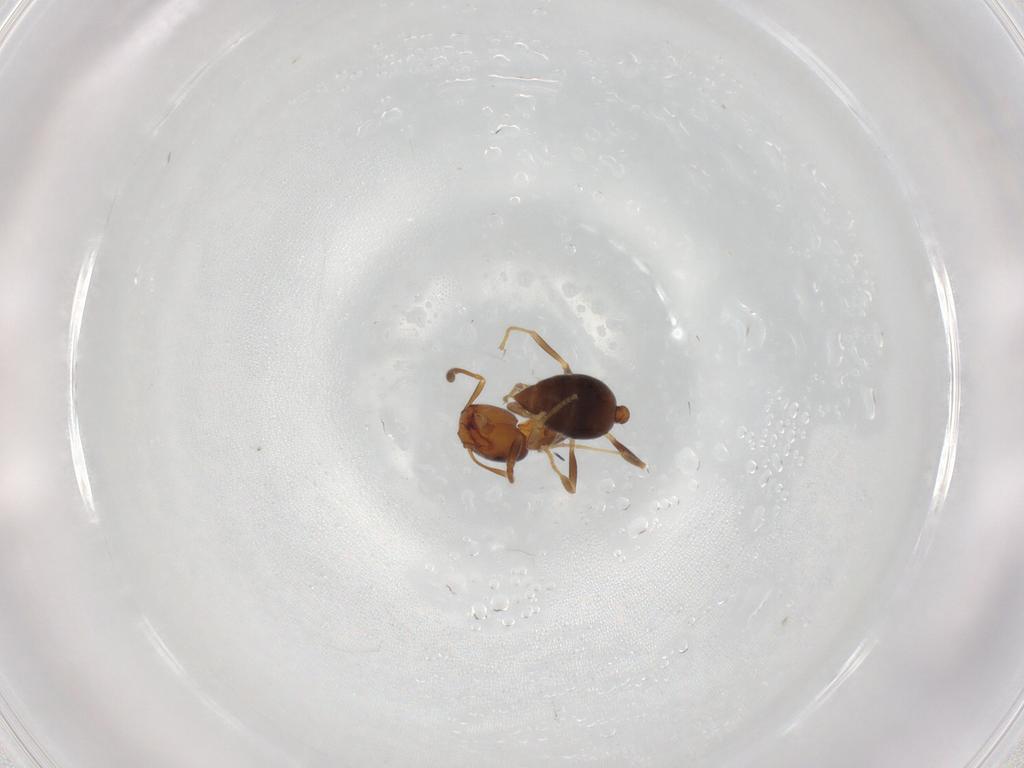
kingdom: Animalia
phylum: Arthropoda
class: Insecta
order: Hymenoptera
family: Formicidae
